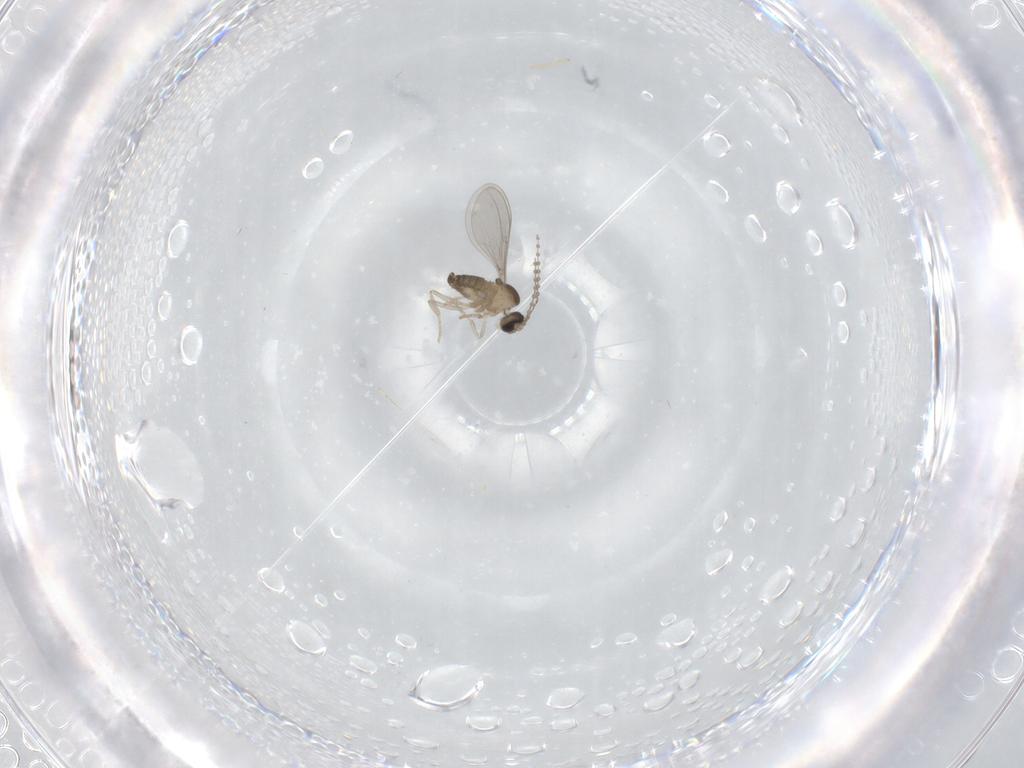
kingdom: Animalia
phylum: Arthropoda
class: Insecta
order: Diptera
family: Cecidomyiidae
